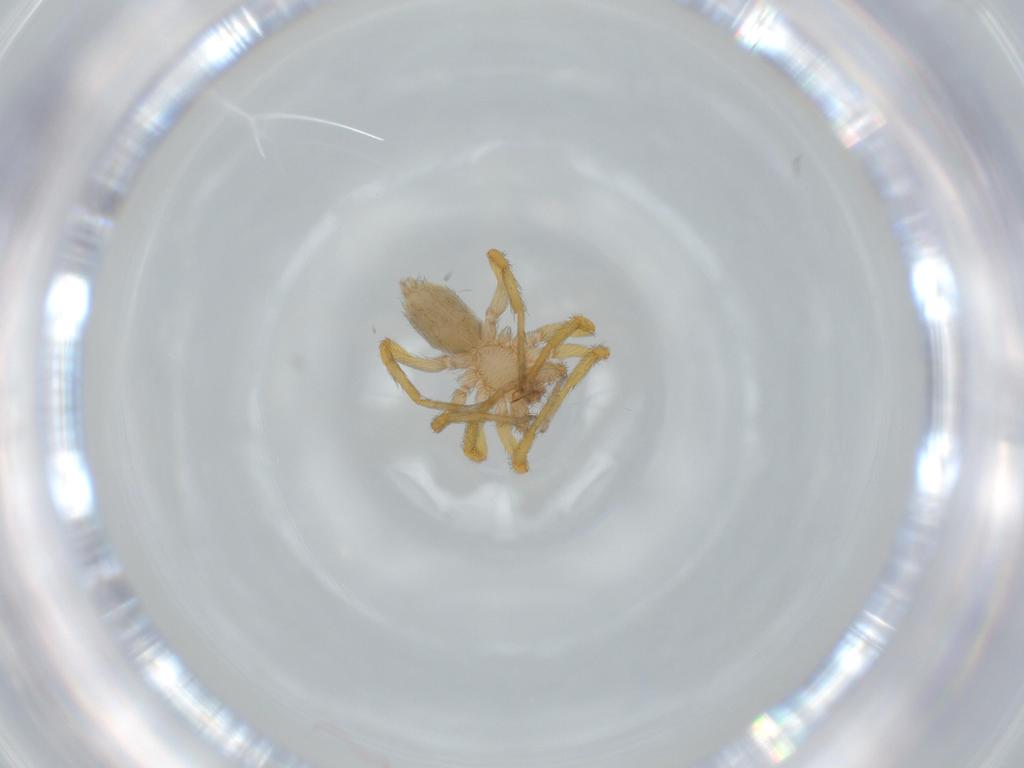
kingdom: Animalia
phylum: Arthropoda
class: Arachnida
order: Araneae
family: Oonopidae
